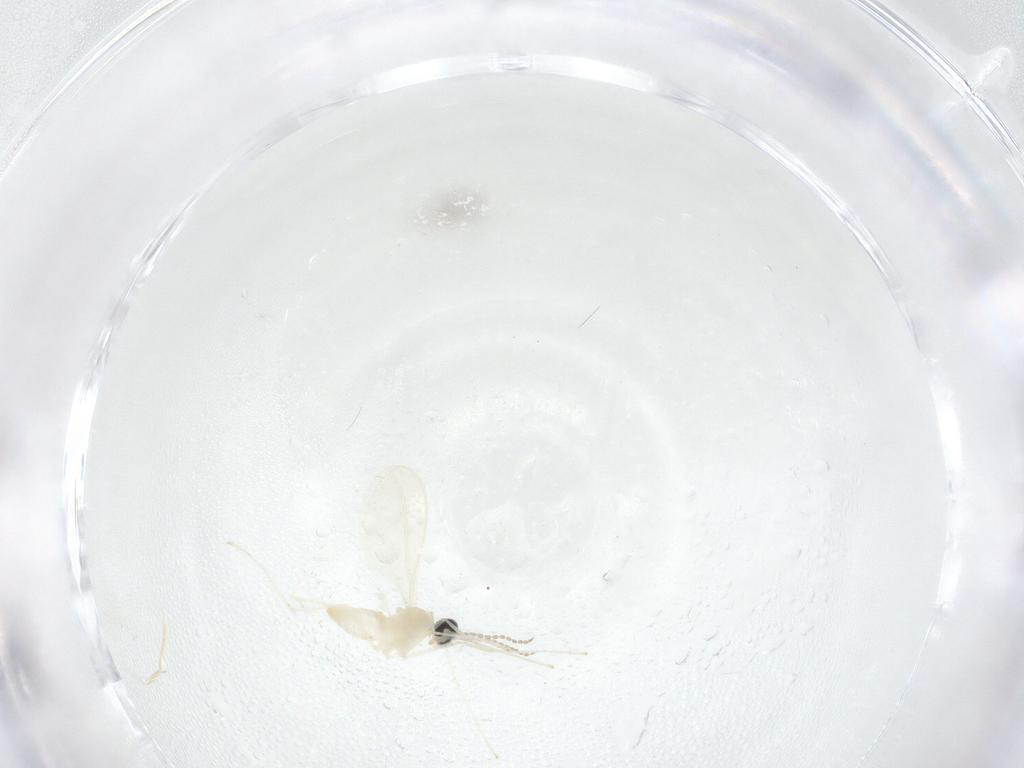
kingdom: Animalia
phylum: Arthropoda
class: Insecta
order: Diptera
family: Cecidomyiidae
